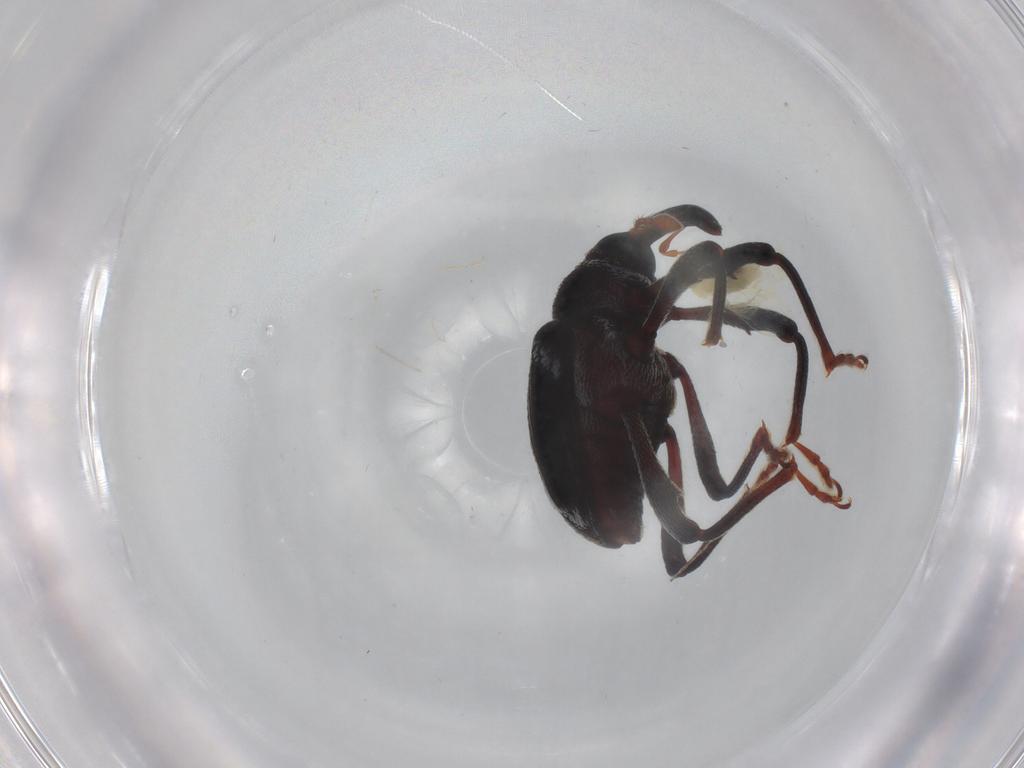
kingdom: Animalia
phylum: Arthropoda
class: Insecta
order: Coleoptera
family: Curculionidae
